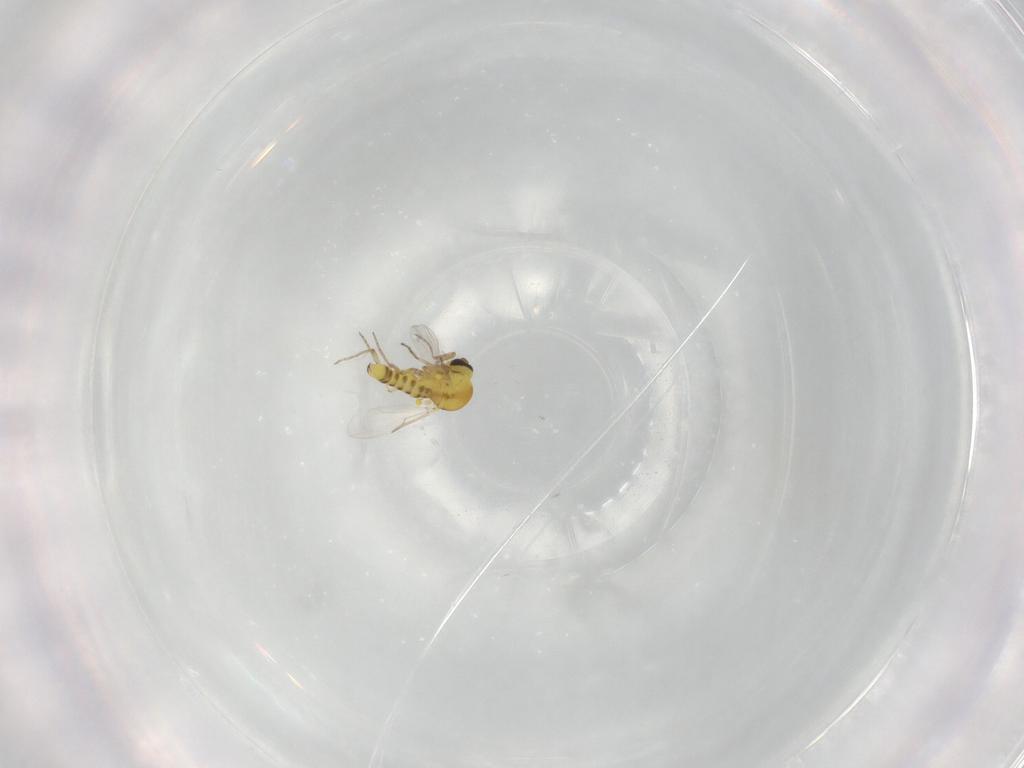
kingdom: Animalia
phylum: Arthropoda
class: Insecta
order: Diptera
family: Ceratopogonidae
